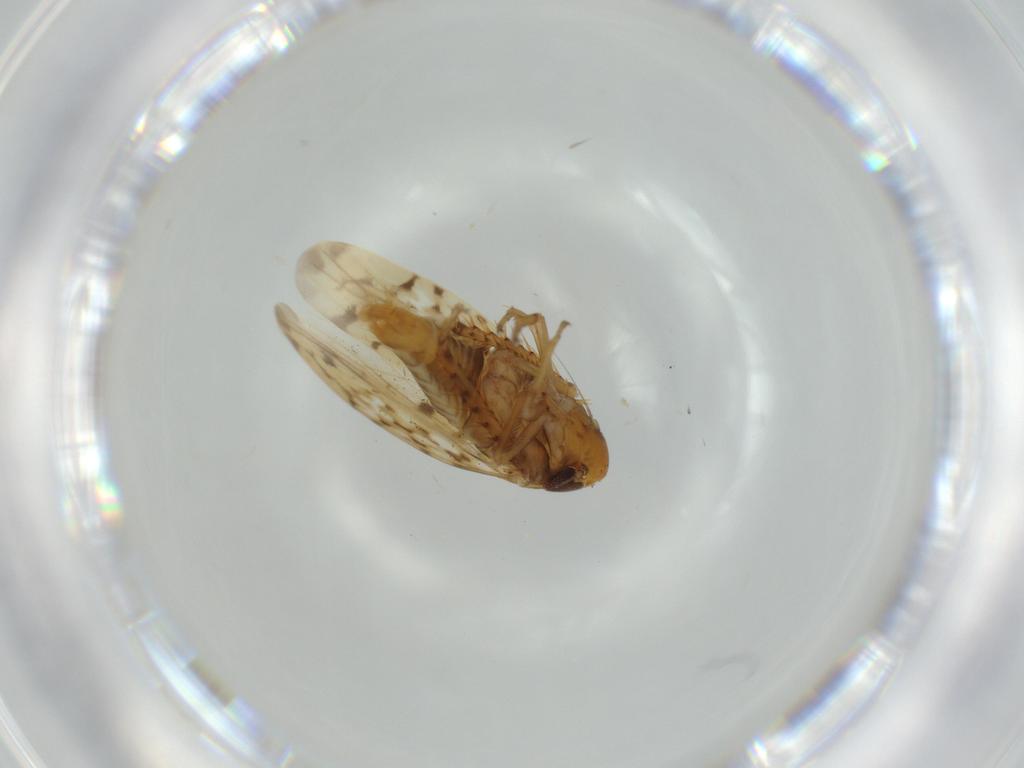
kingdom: Animalia
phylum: Arthropoda
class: Insecta
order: Hemiptera
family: Cicadellidae
